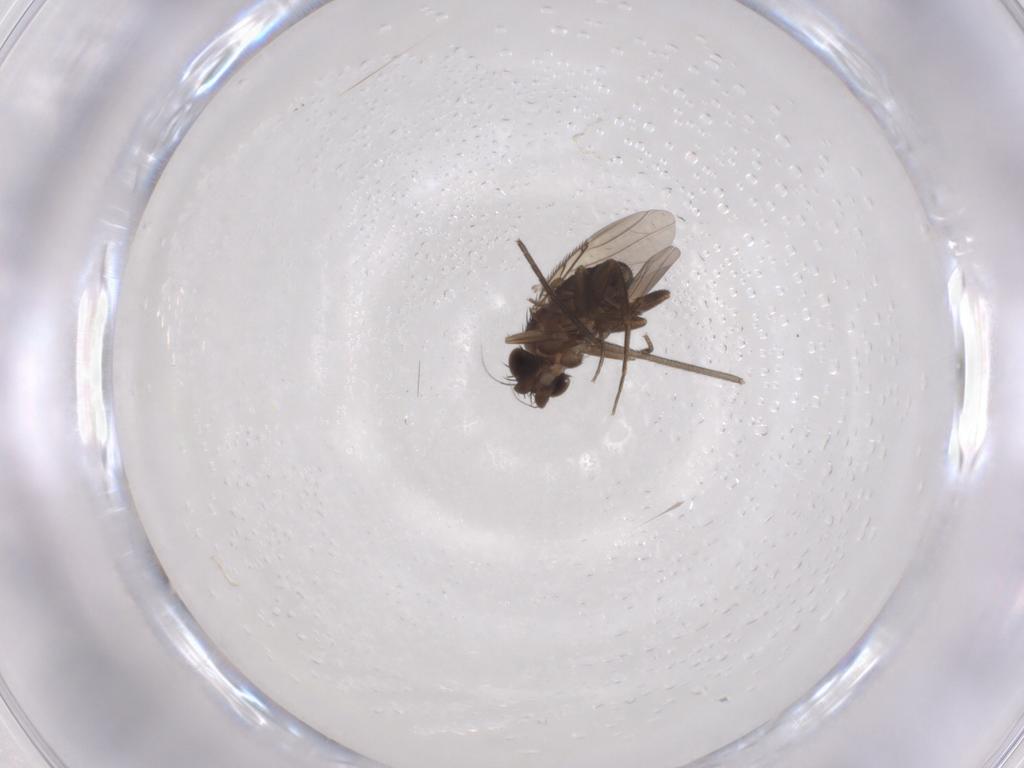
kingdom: Animalia
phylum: Arthropoda
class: Insecta
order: Diptera
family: Phoridae
